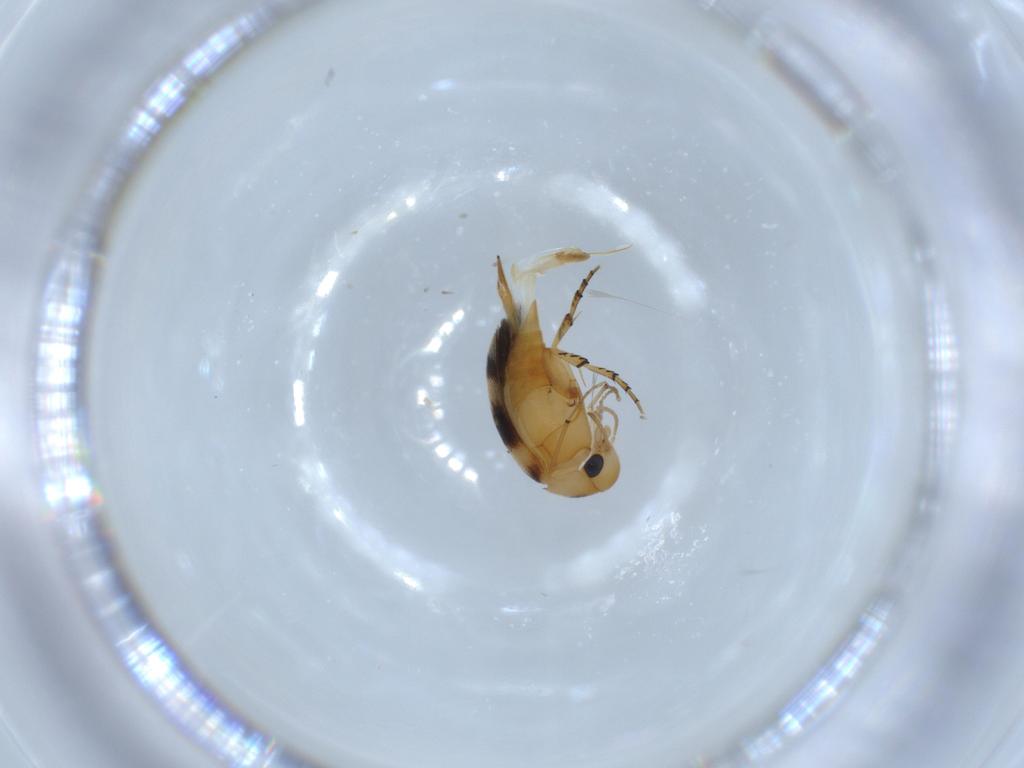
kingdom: Animalia
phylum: Arthropoda
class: Insecta
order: Coleoptera
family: Mordellidae
